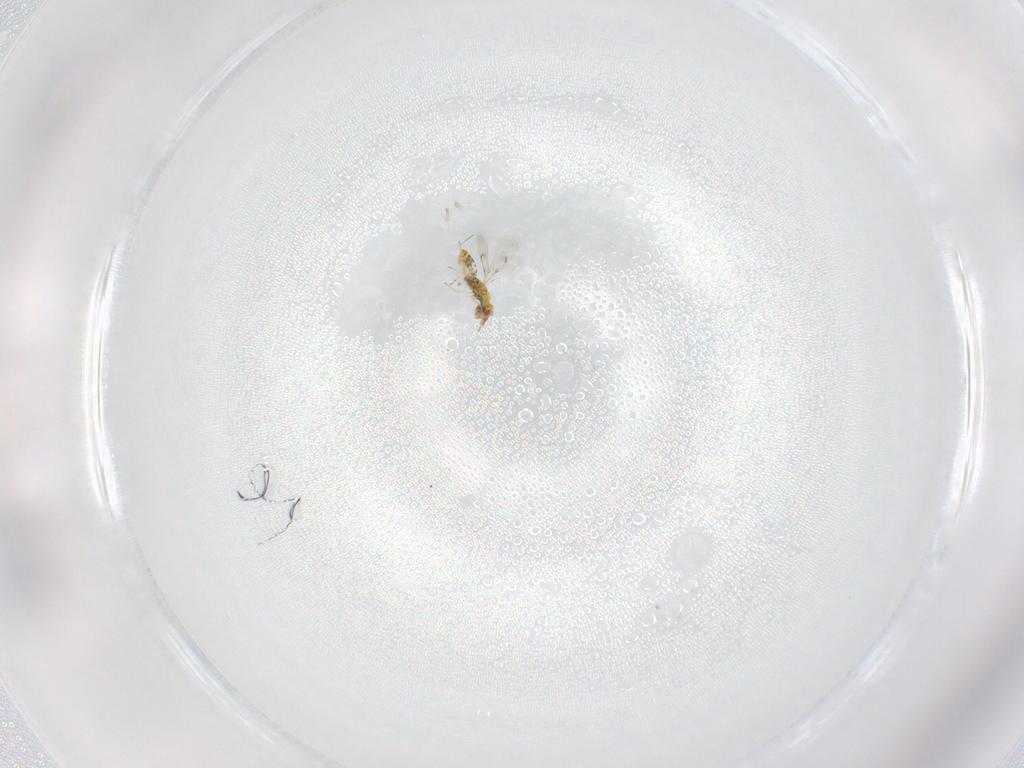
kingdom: Animalia
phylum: Arthropoda
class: Insecta
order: Hymenoptera
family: Eulophidae
